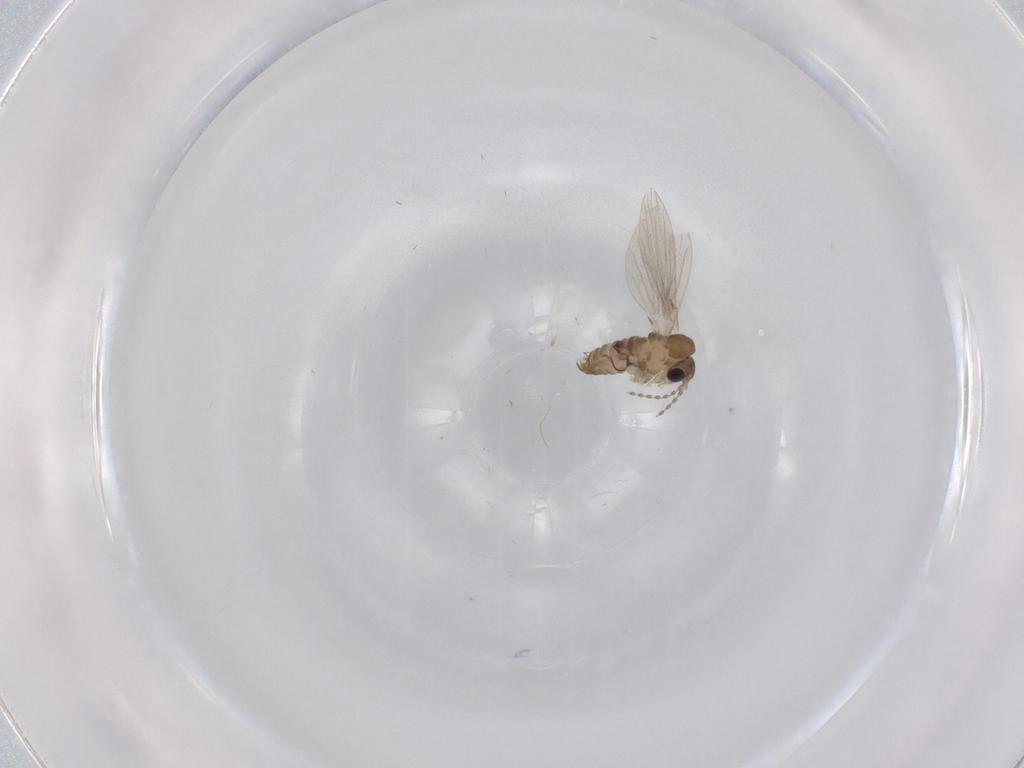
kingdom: Animalia
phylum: Arthropoda
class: Insecta
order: Diptera
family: Psychodidae
